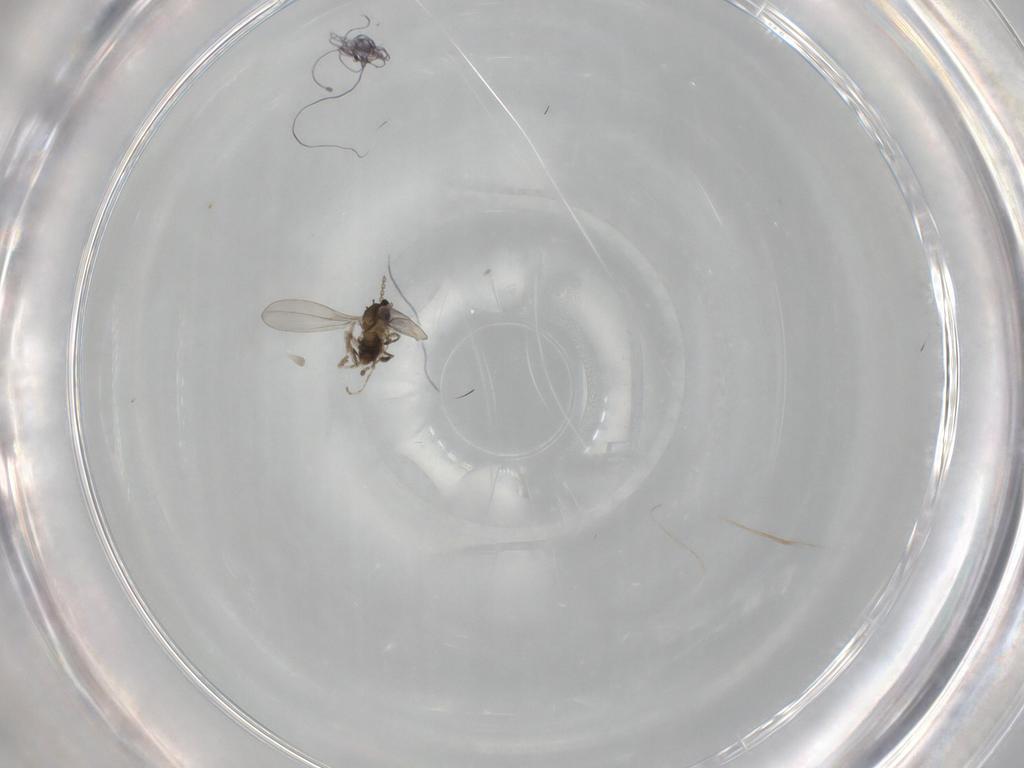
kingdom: Animalia
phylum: Arthropoda
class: Insecta
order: Diptera
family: Cecidomyiidae
